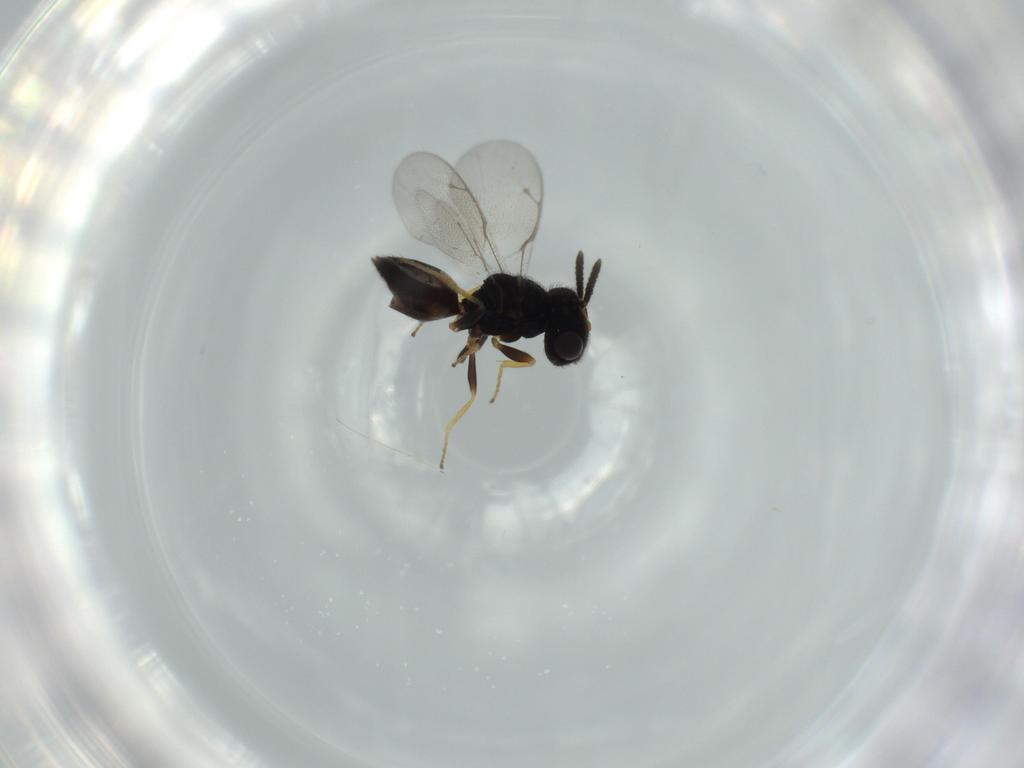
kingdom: Animalia
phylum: Arthropoda
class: Insecta
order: Hymenoptera
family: Pteromalidae
